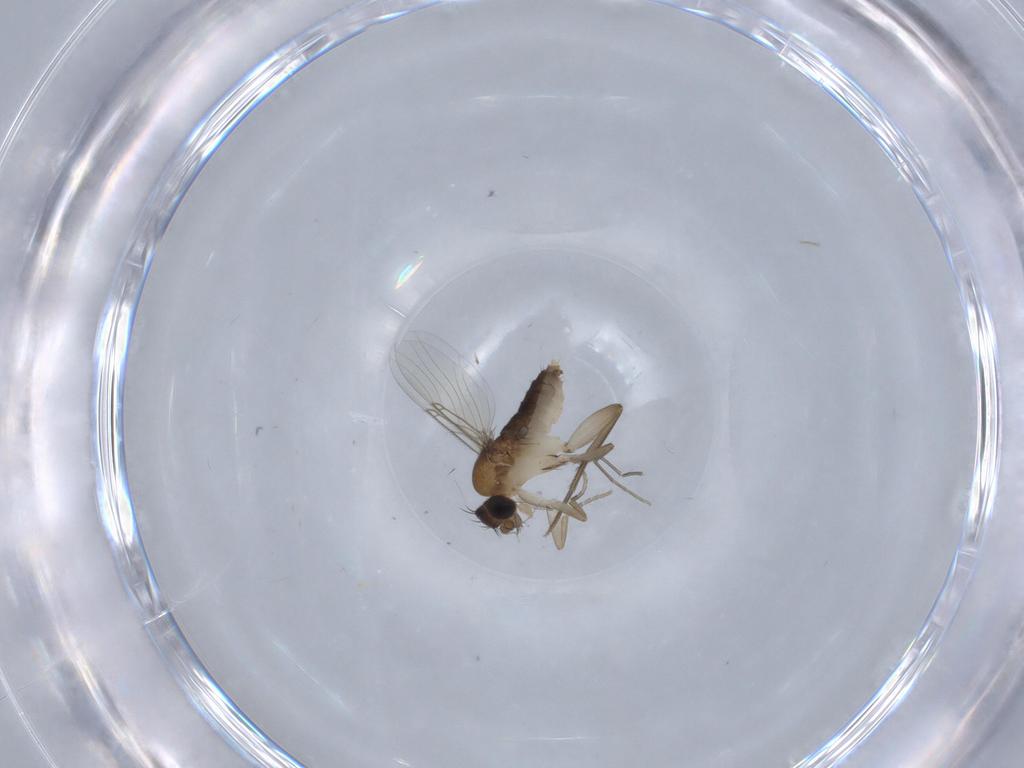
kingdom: Animalia
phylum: Arthropoda
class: Insecta
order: Diptera
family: Phoridae
